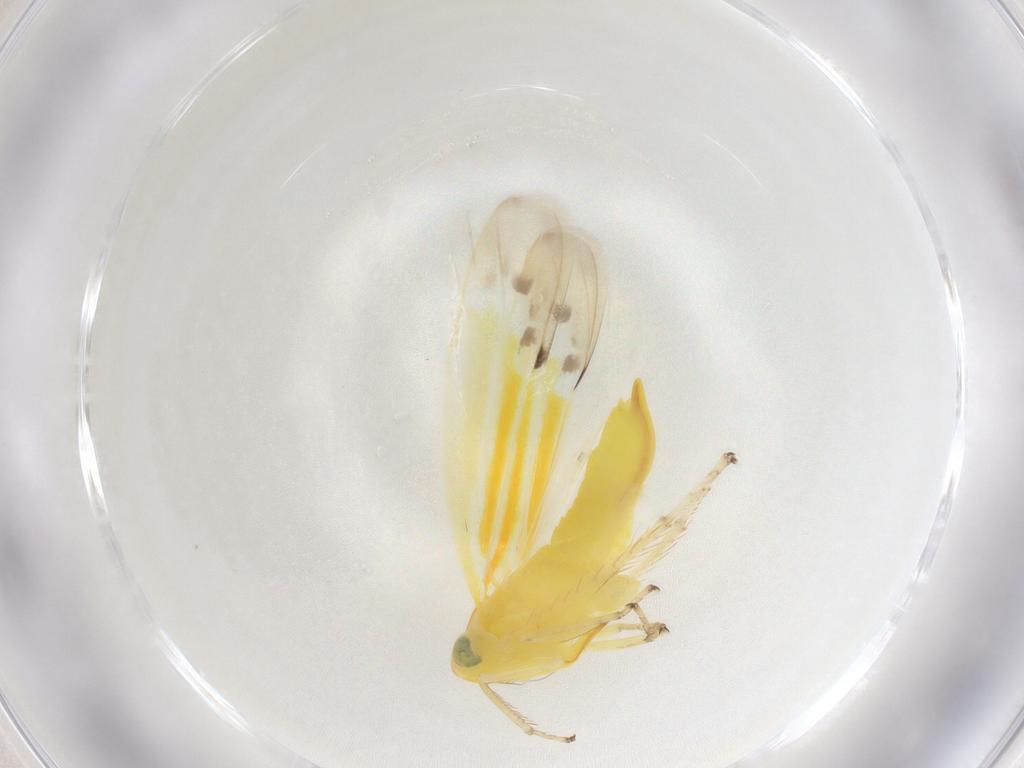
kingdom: Animalia
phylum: Arthropoda
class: Insecta
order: Hemiptera
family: Cicadellidae
